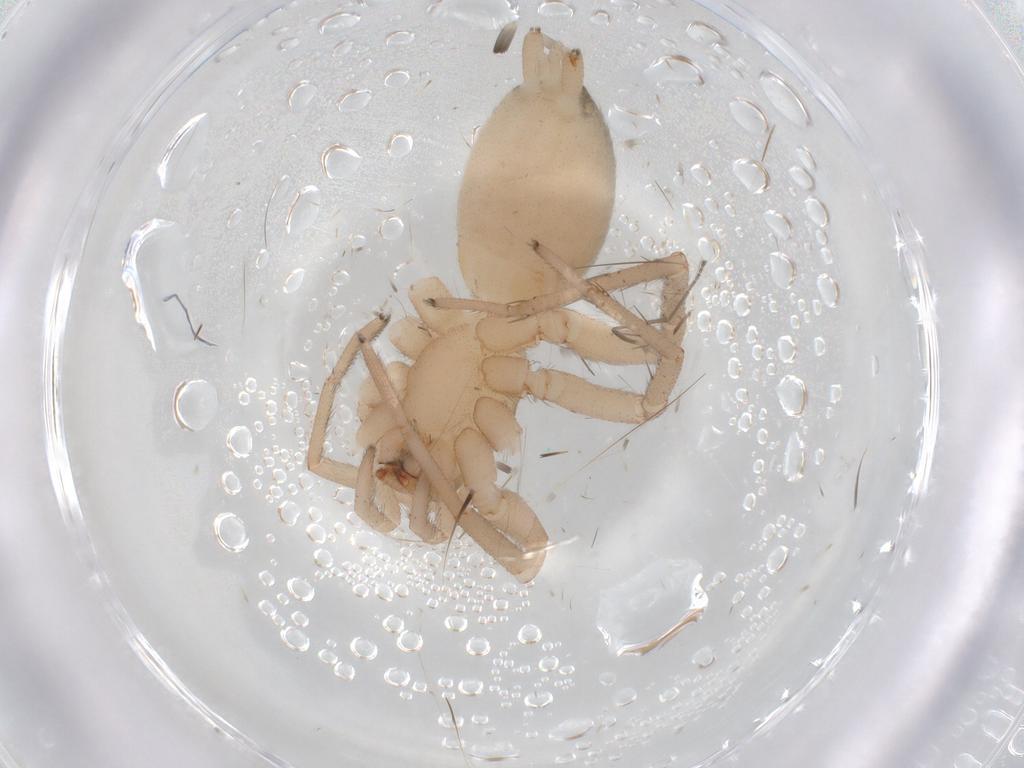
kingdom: Animalia
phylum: Arthropoda
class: Arachnida
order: Araneae
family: Gnaphosidae
